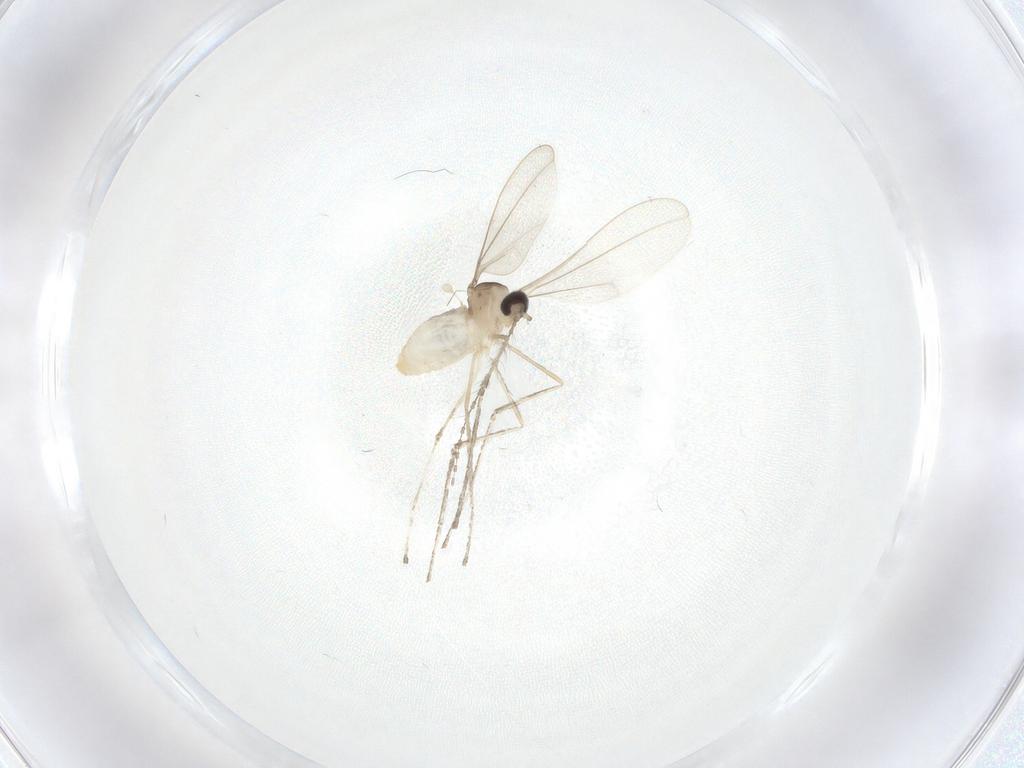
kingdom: Animalia
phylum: Arthropoda
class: Insecta
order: Diptera
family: Cecidomyiidae
